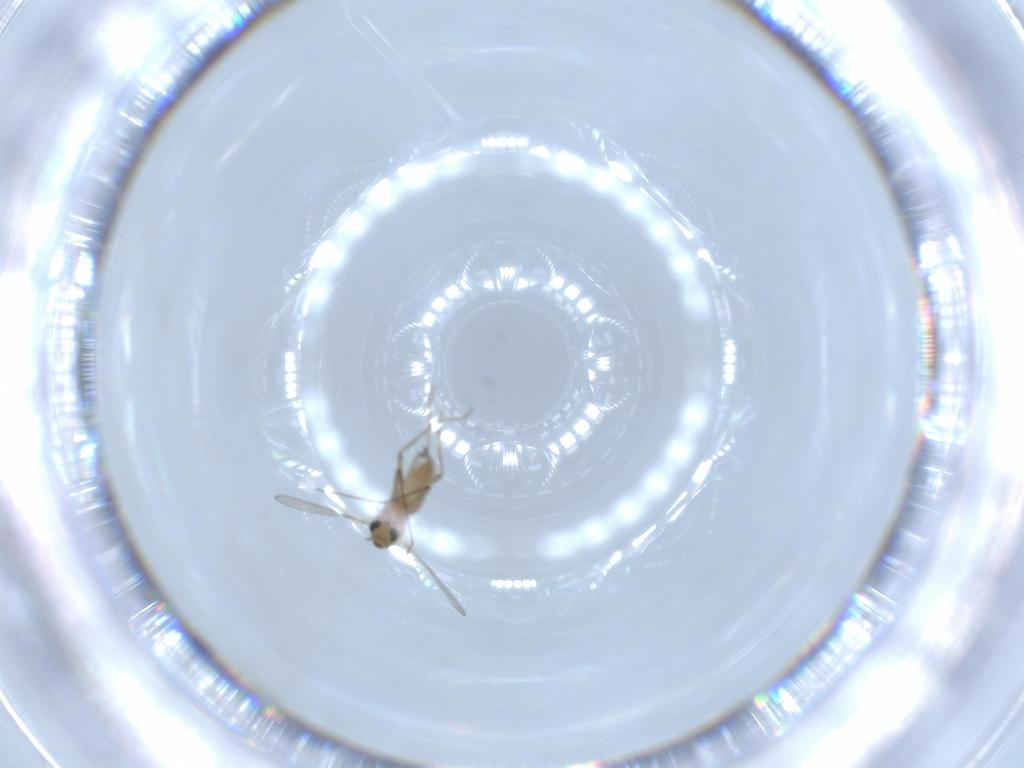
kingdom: Animalia
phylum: Arthropoda
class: Insecta
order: Diptera
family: Chironomidae
